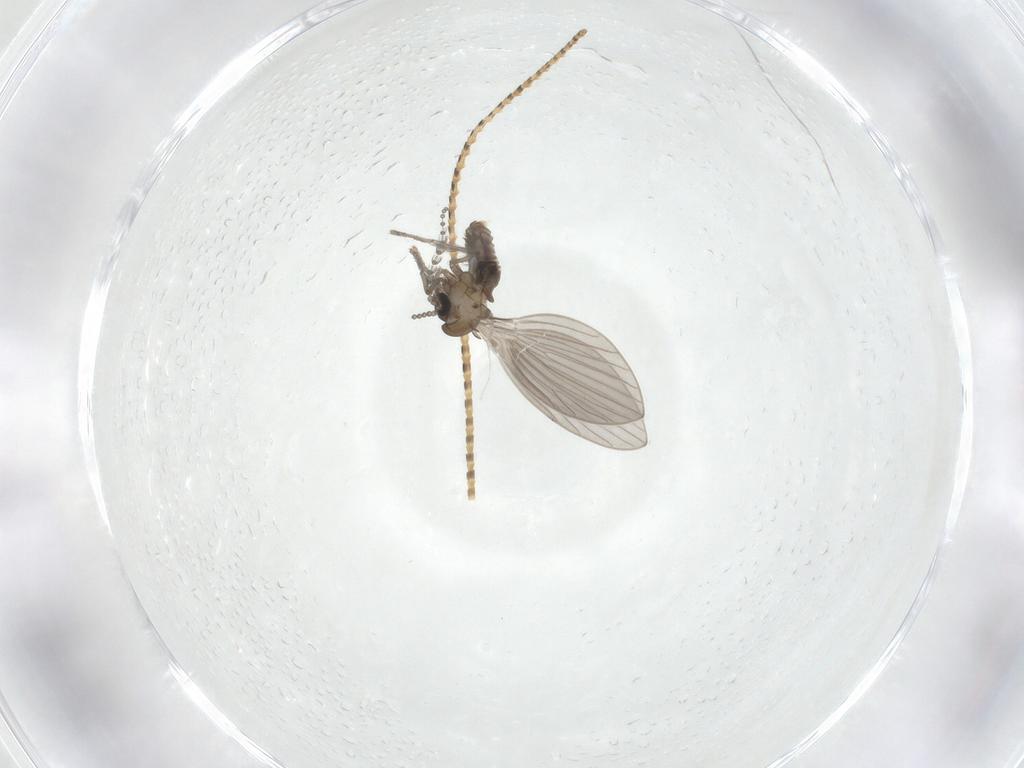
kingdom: Animalia
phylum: Arthropoda
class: Insecta
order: Diptera
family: Psychodidae
